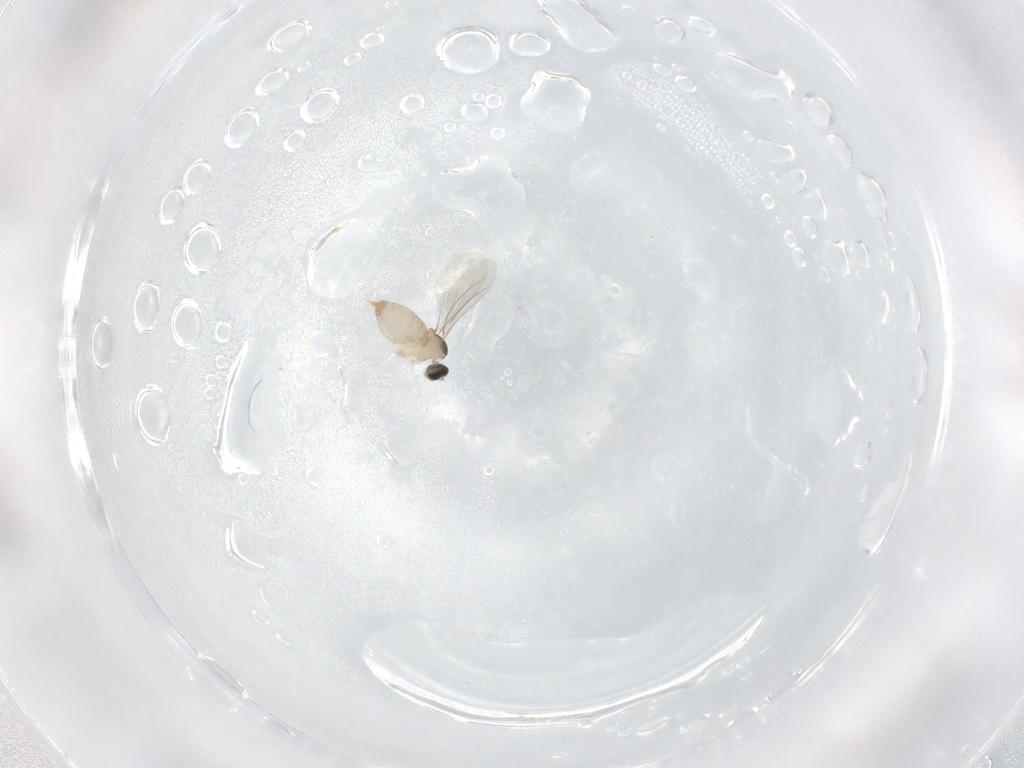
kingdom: Animalia
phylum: Arthropoda
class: Insecta
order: Diptera
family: Cecidomyiidae
